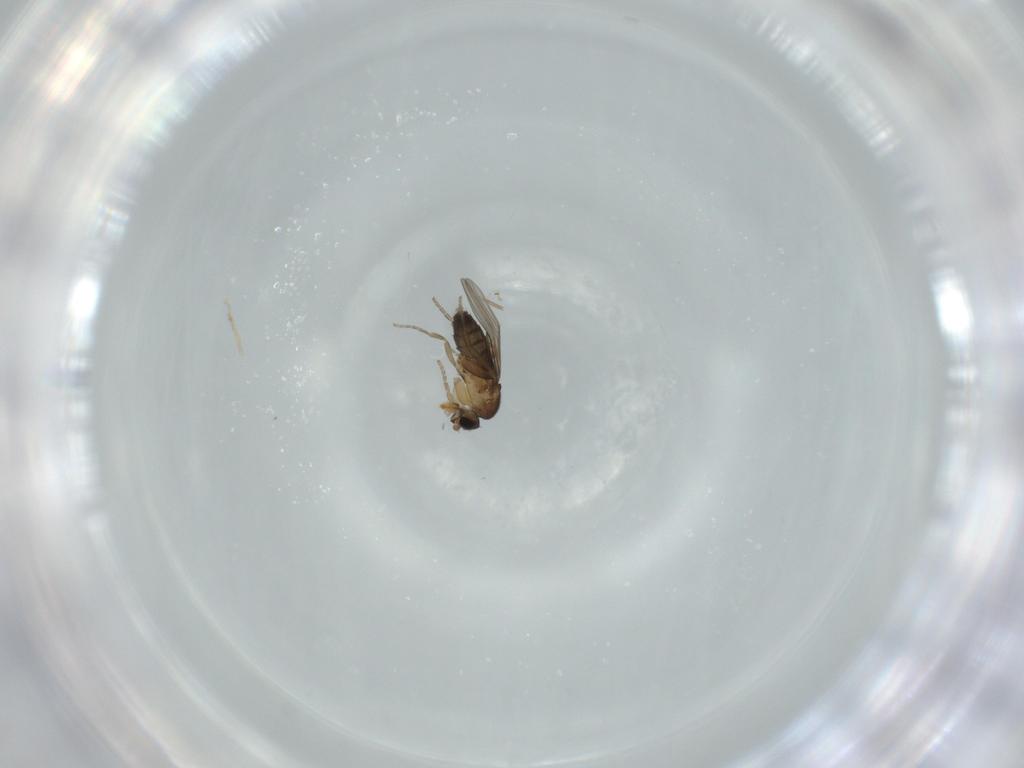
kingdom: Animalia
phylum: Arthropoda
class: Insecta
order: Diptera
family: Phoridae
